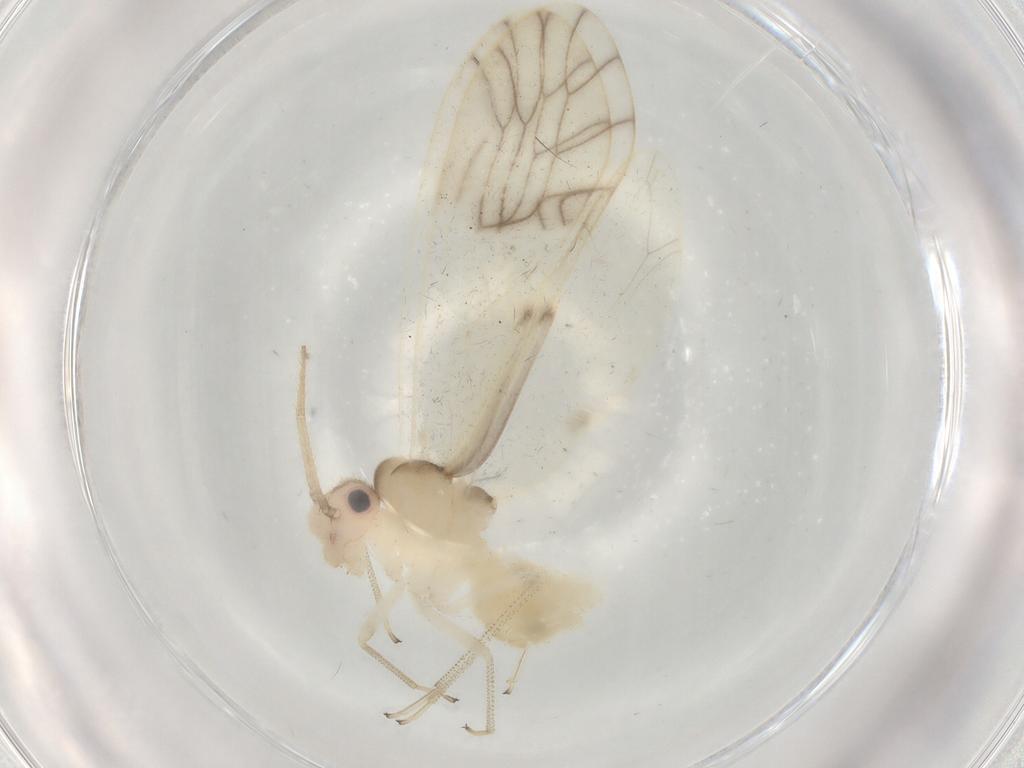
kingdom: Animalia
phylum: Arthropoda
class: Insecta
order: Psocodea
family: Caeciliusidae
